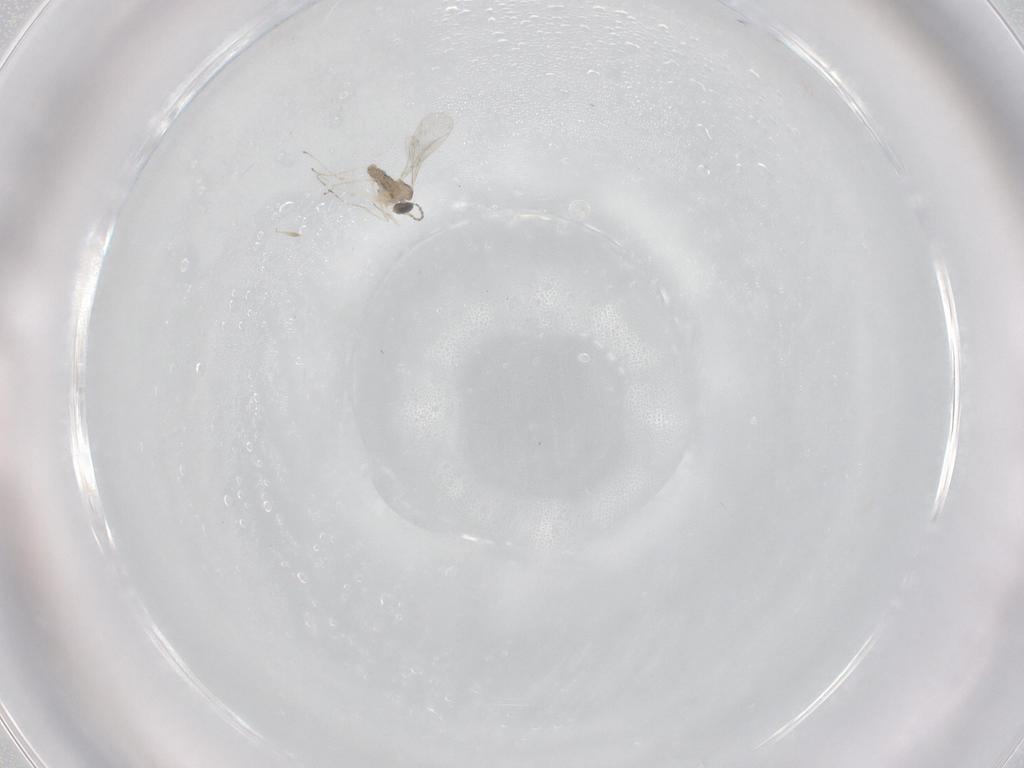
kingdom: Animalia
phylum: Arthropoda
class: Insecta
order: Diptera
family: Cecidomyiidae
